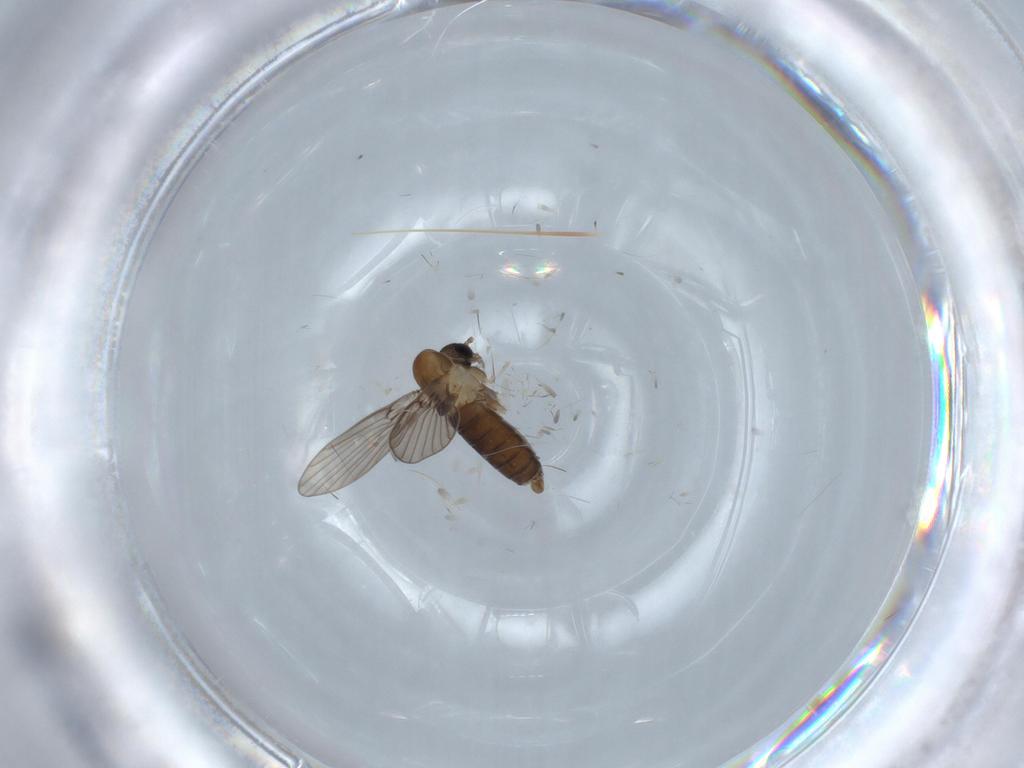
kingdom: Animalia
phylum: Arthropoda
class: Insecta
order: Diptera
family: Psychodidae
